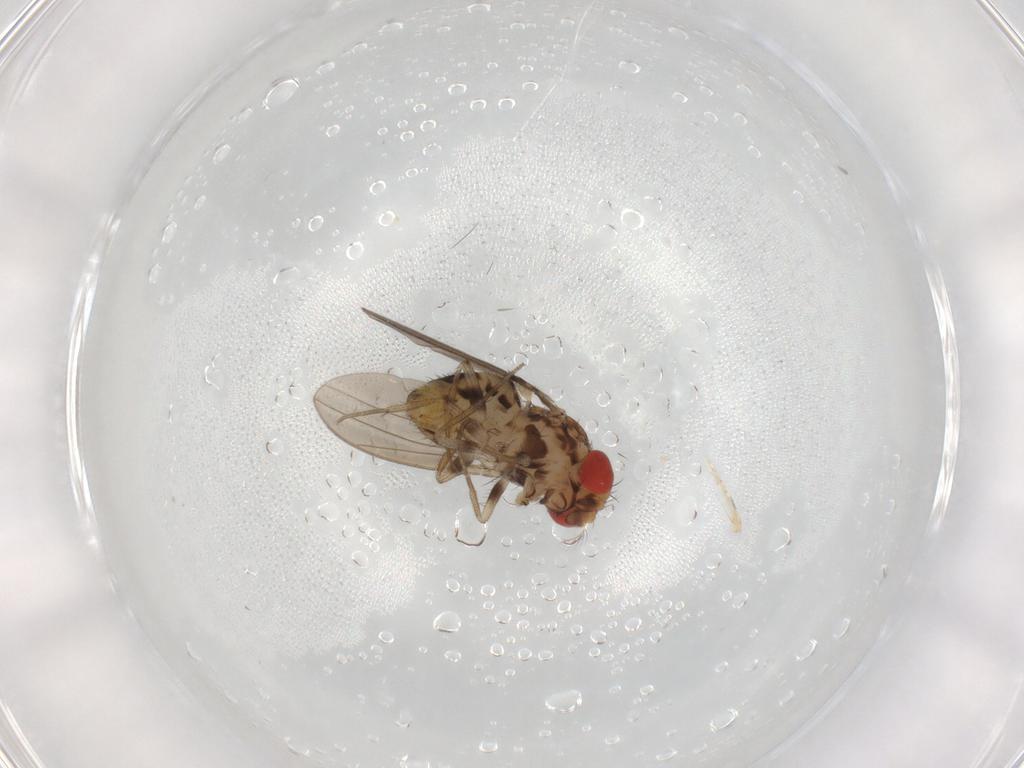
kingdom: Animalia
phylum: Arthropoda
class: Insecta
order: Diptera
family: Drosophilidae
